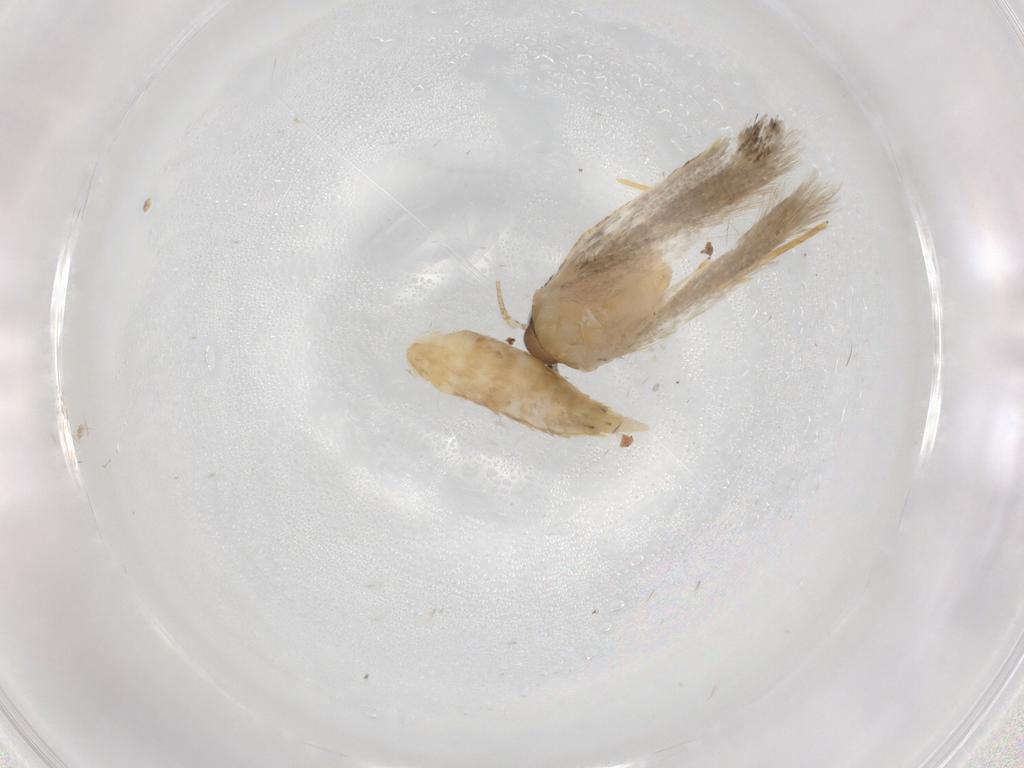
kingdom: Animalia
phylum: Arthropoda
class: Insecta
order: Lepidoptera
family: Autostichidae
